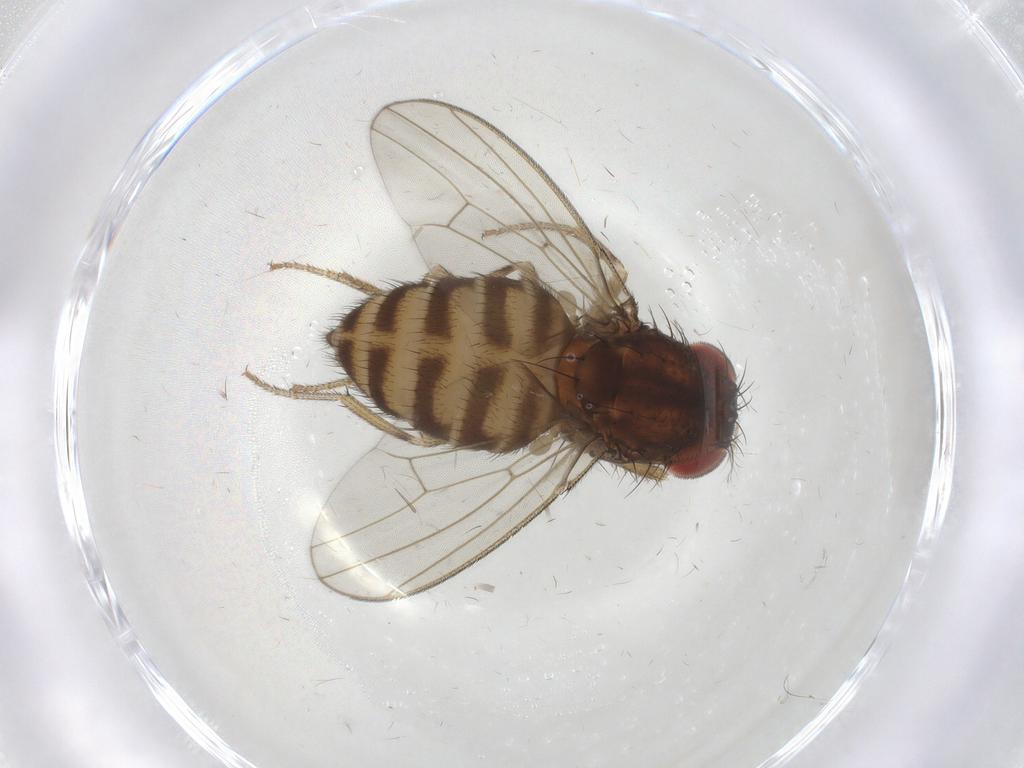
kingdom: Animalia
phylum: Arthropoda
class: Insecta
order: Diptera
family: Drosophilidae
